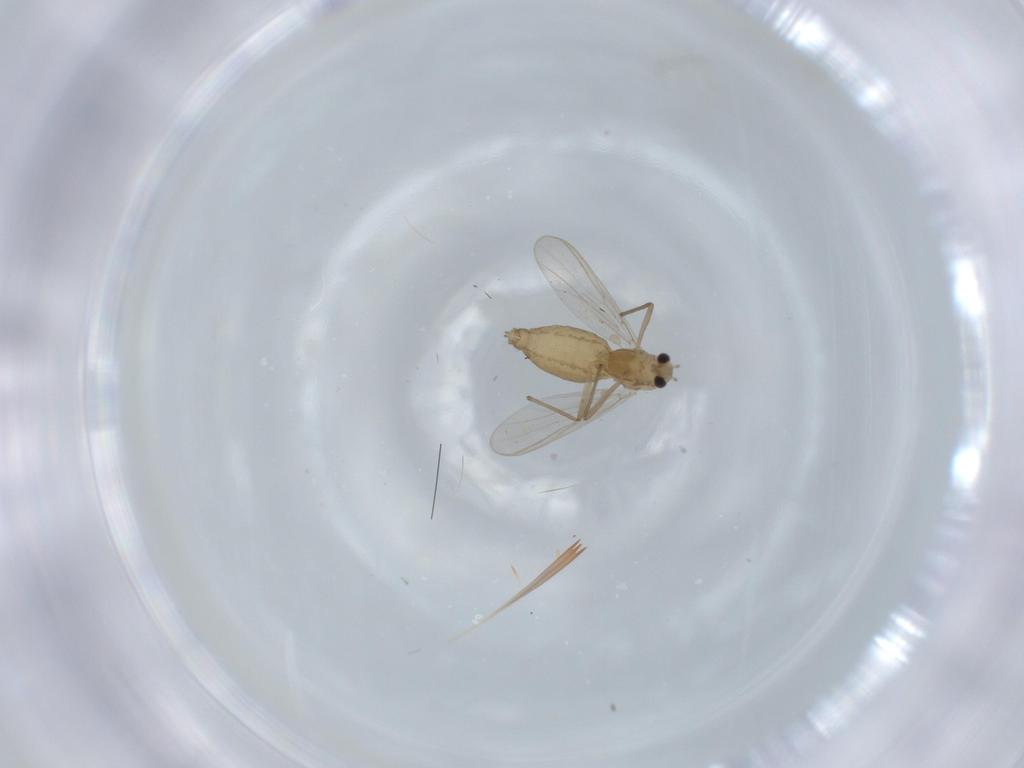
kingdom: Animalia
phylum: Arthropoda
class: Insecta
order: Diptera
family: Chironomidae
